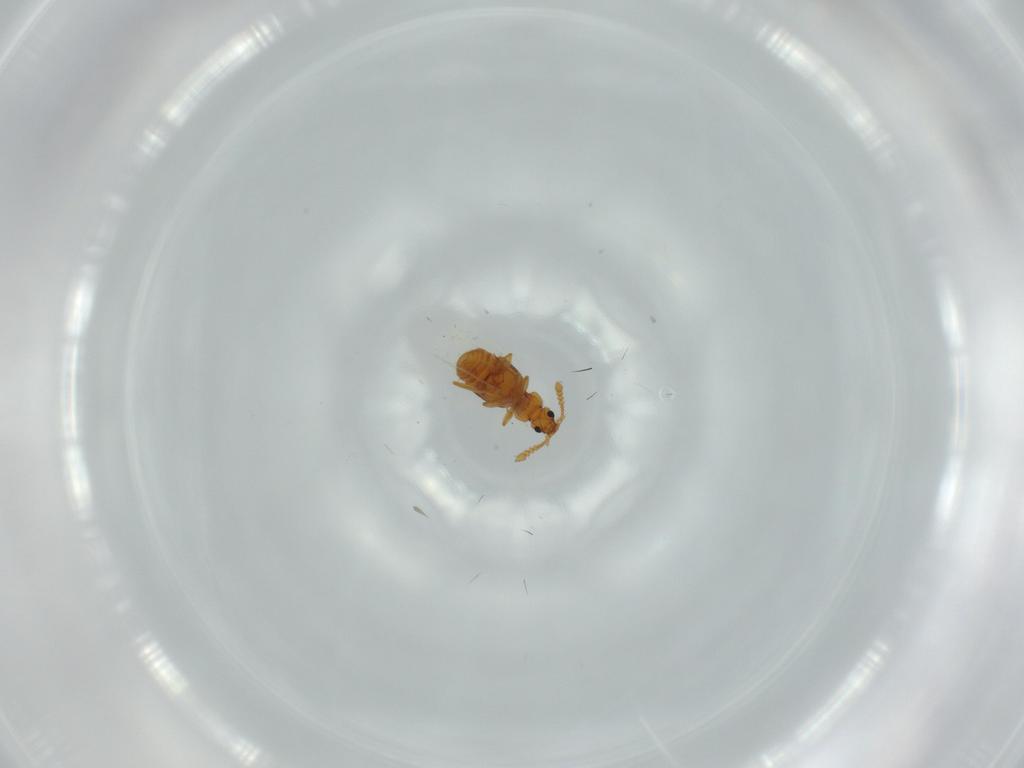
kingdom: Animalia
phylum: Arthropoda
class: Insecta
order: Coleoptera
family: Staphylinidae
